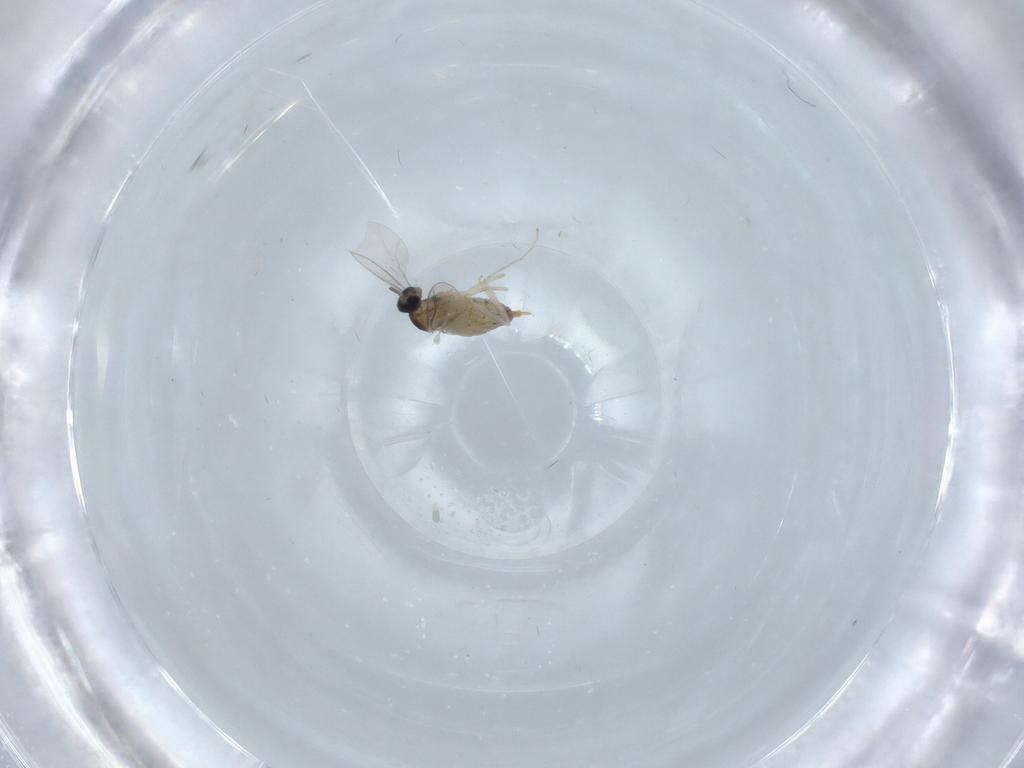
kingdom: Animalia
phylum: Arthropoda
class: Insecta
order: Diptera
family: Cecidomyiidae
